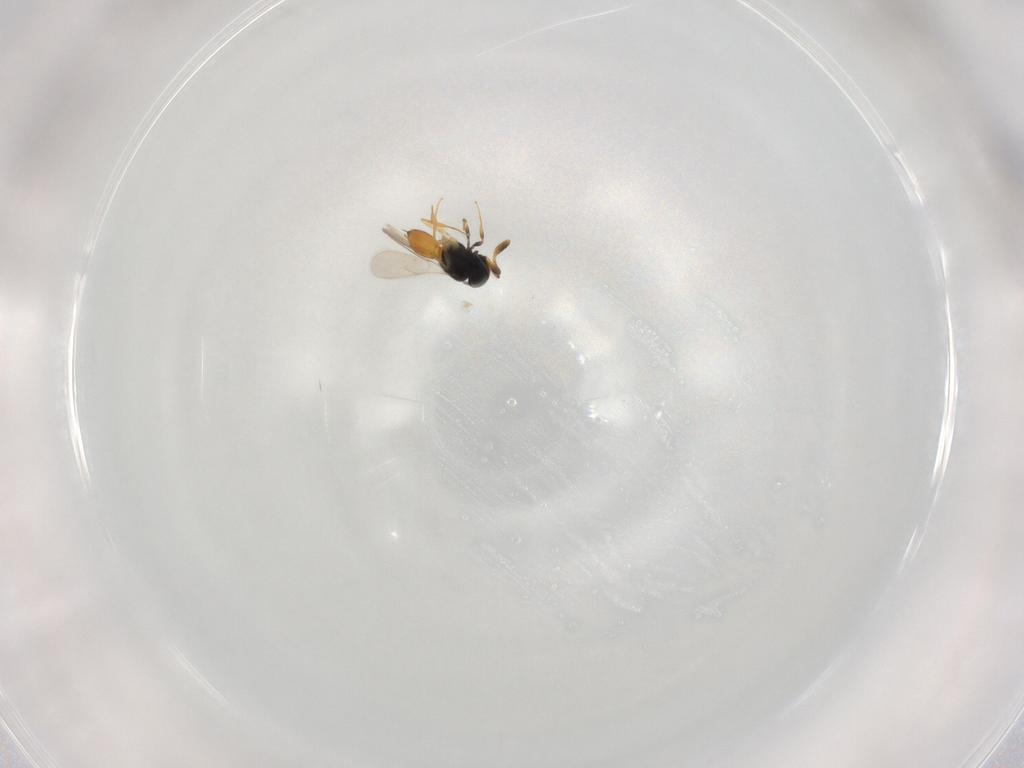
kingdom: Animalia
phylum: Arthropoda
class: Insecta
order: Hymenoptera
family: Scelionidae
